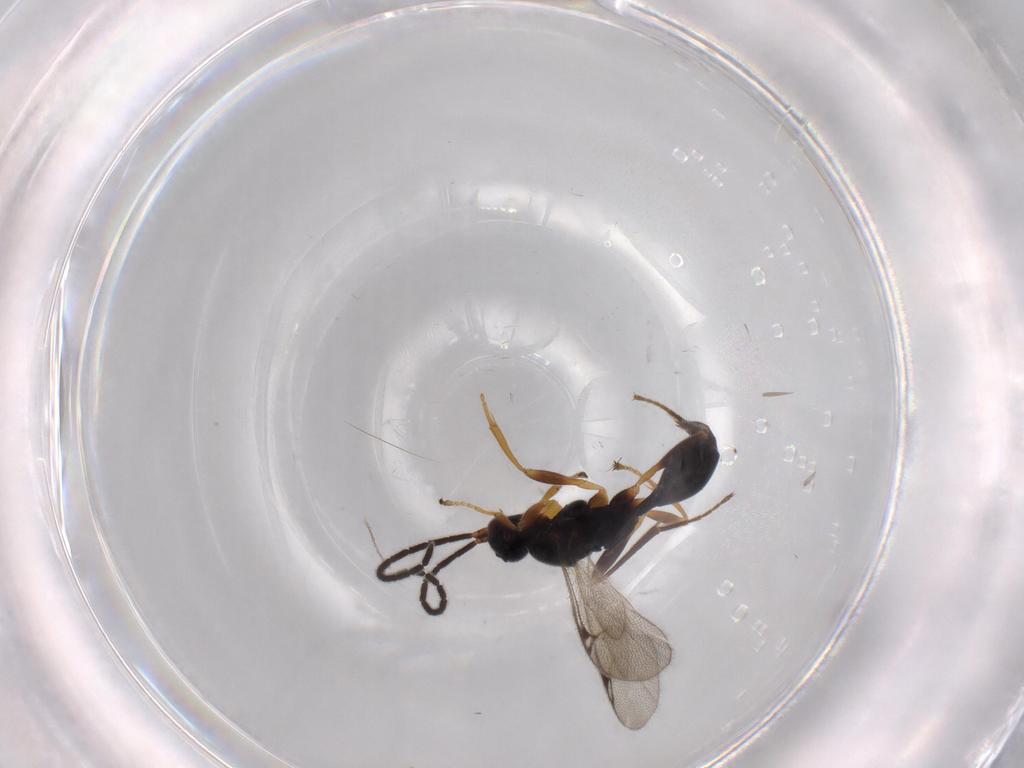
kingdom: Animalia
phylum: Arthropoda
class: Insecta
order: Hymenoptera
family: Proctotrupidae
